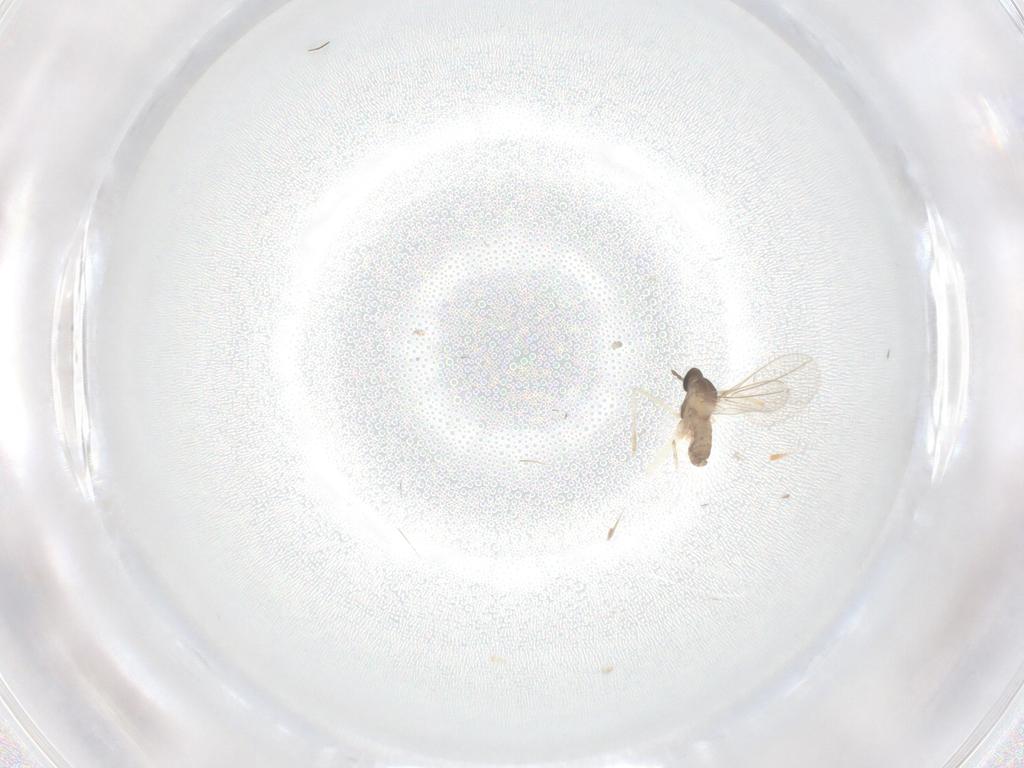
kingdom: Animalia
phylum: Arthropoda
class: Insecta
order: Diptera
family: Cecidomyiidae
